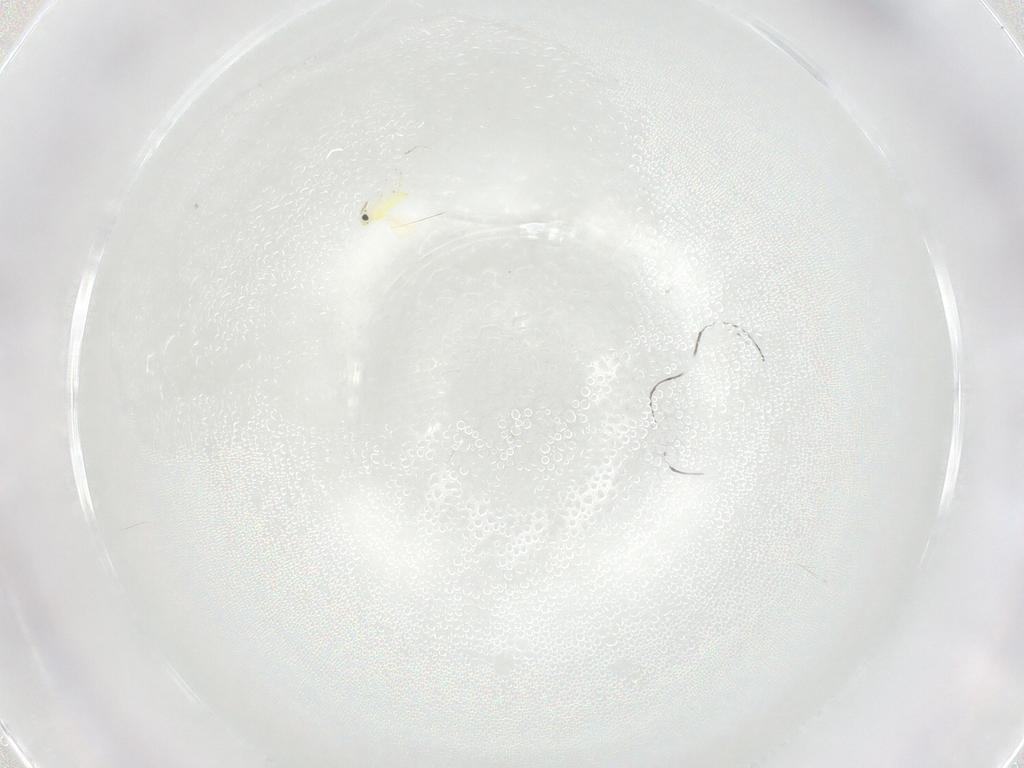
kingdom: Animalia
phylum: Arthropoda
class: Insecta
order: Hymenoptera
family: Trichogrammatidae
